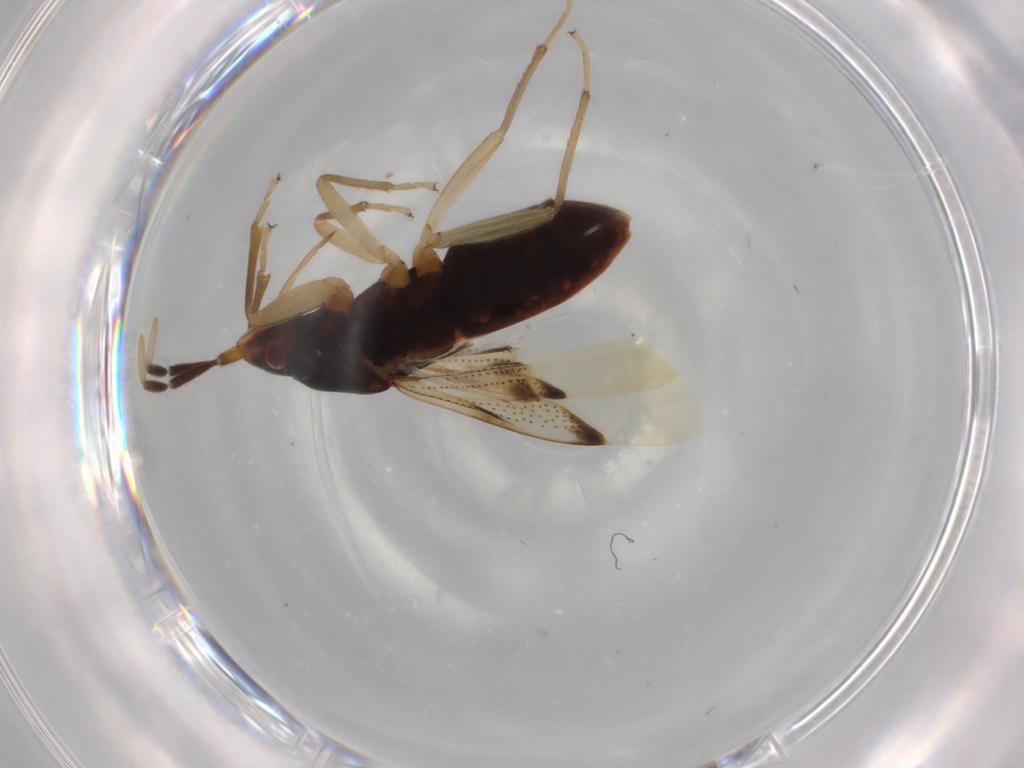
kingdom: Animalia
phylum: Arthropoda
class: Insecta
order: Hemiptera
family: Rhyparochromidae
